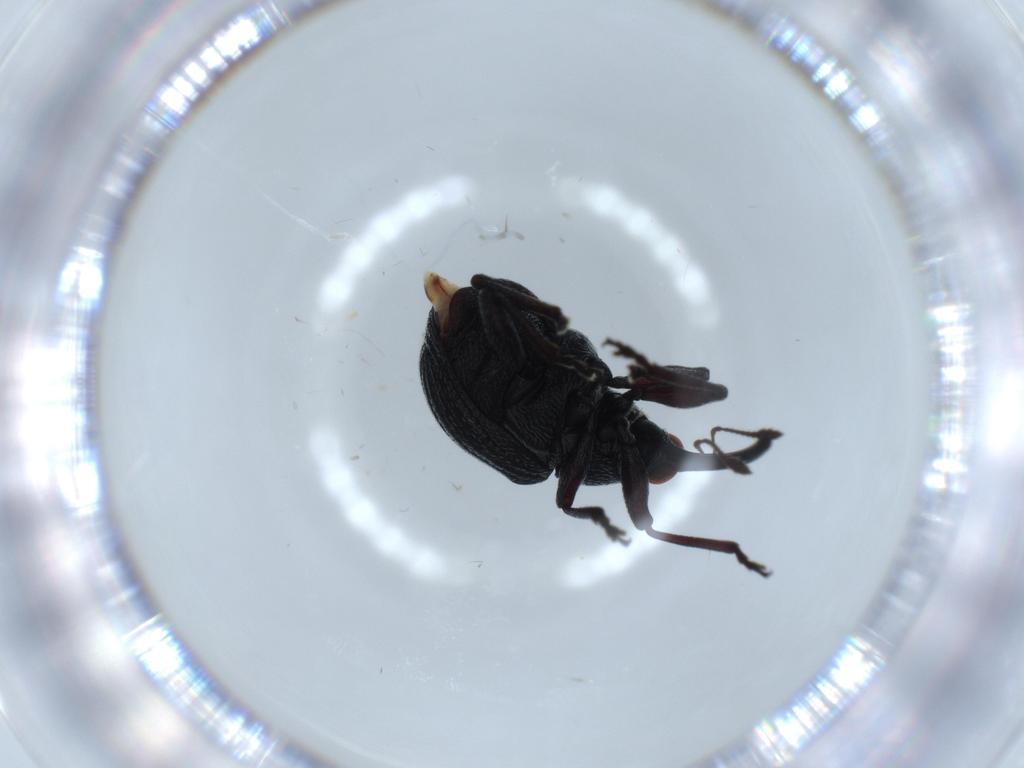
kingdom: Animalia
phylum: Arthropoda
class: Insecta
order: Coleoptera
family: Brentidae
